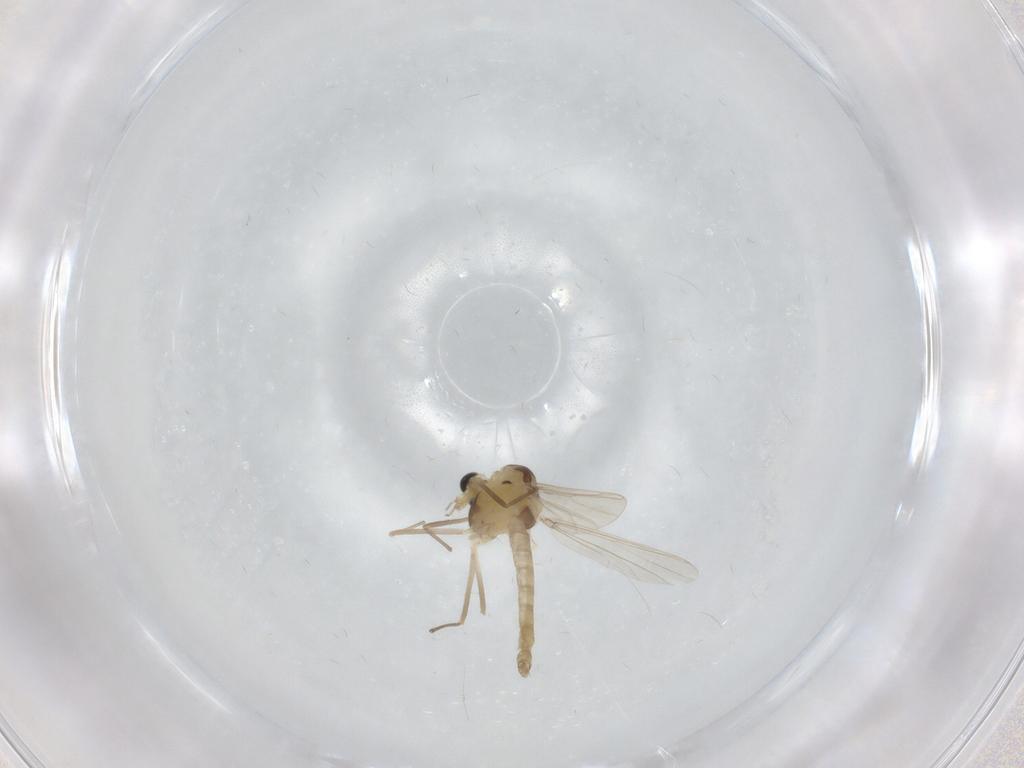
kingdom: Animalia
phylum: Arthropoda
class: Insecta
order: Diptera
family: Chironomidae
